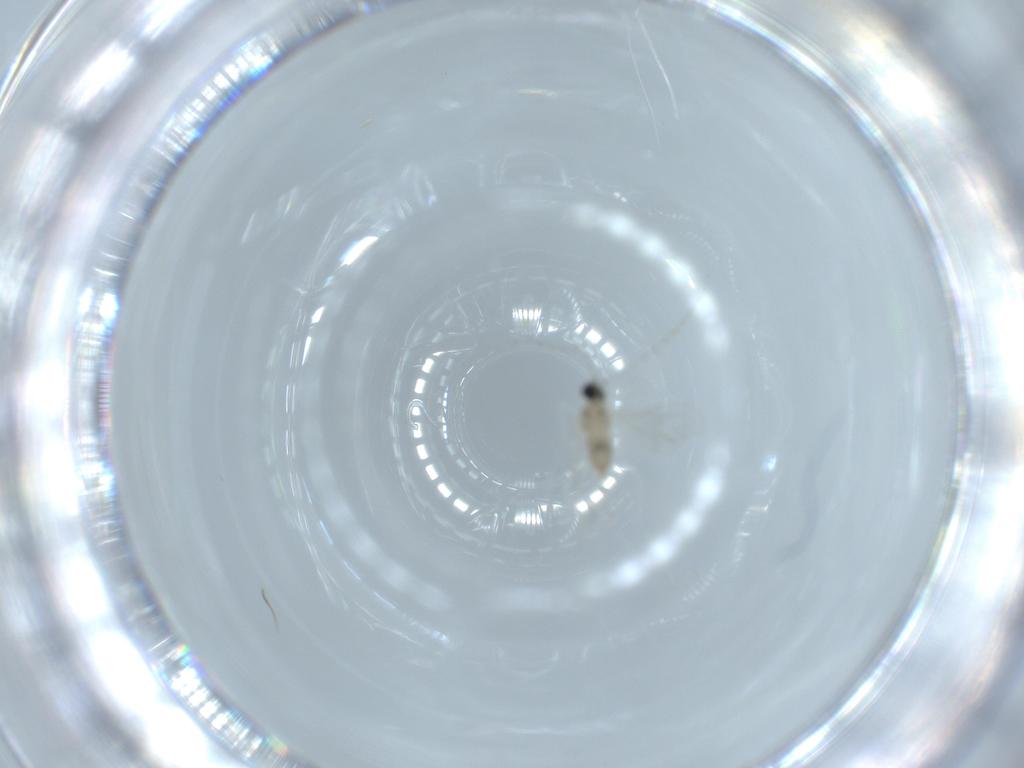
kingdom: Animalia
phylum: Arthropoda
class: Insecta
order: Diptera
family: Cecidomyiidae
